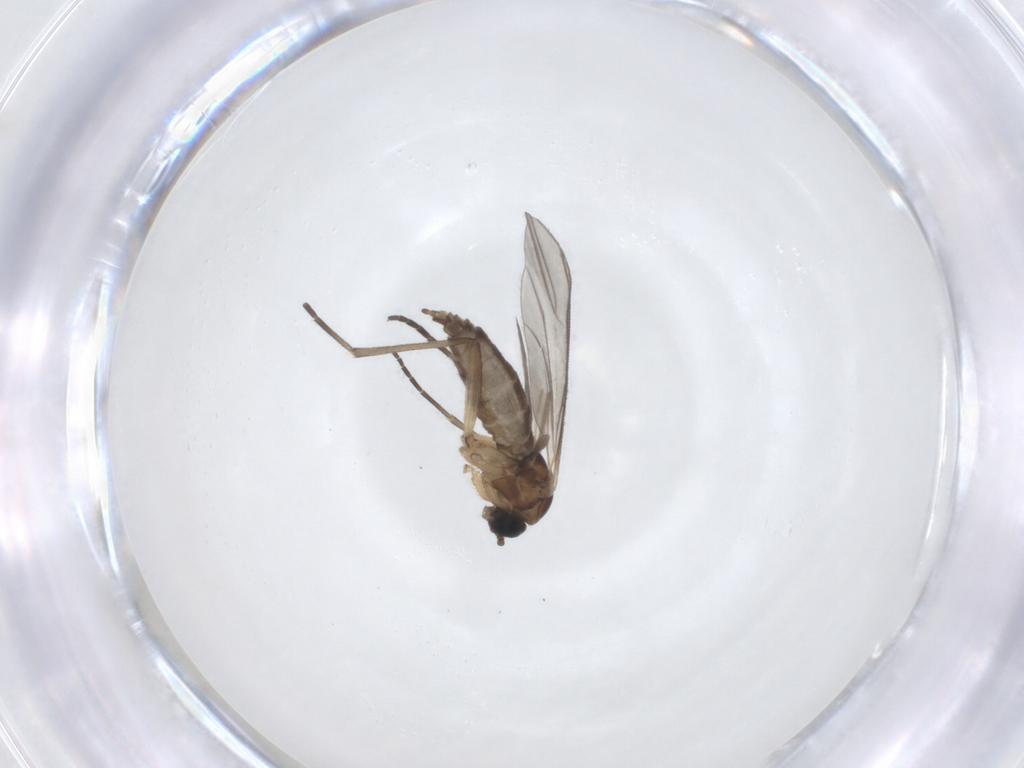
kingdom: Animalia
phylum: Arthropoda
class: Insecta
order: Diptera
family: Sciaridae
